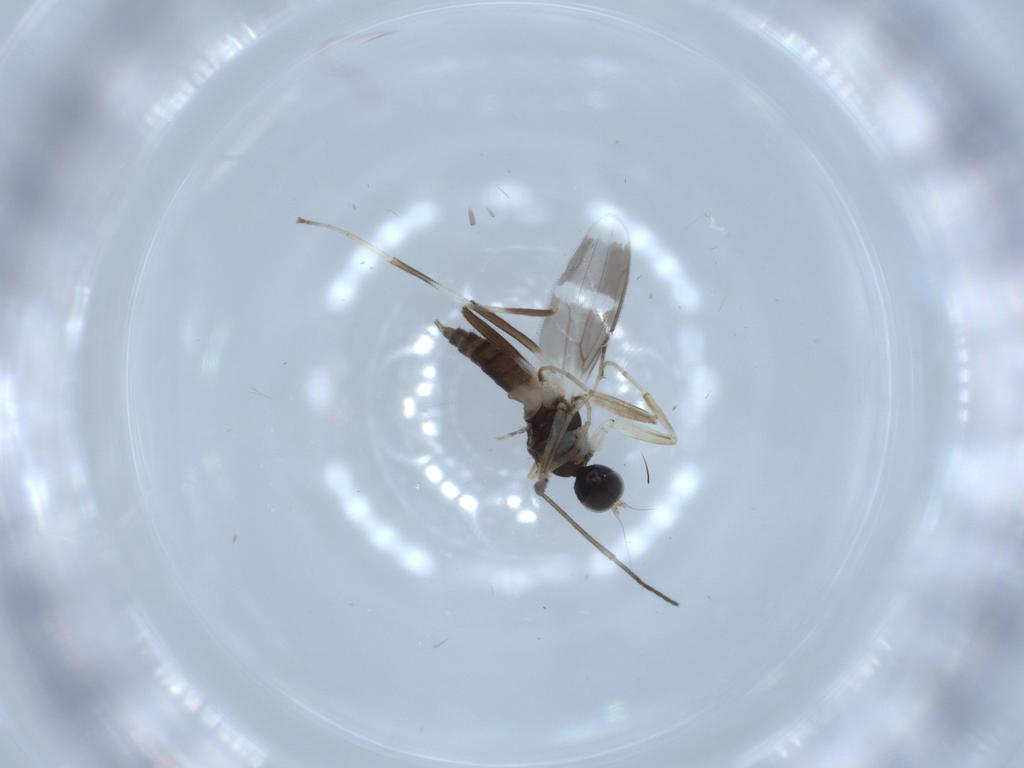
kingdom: Animalia
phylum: Arthropoda
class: Insecta
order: Diptera
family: Hybotidae
